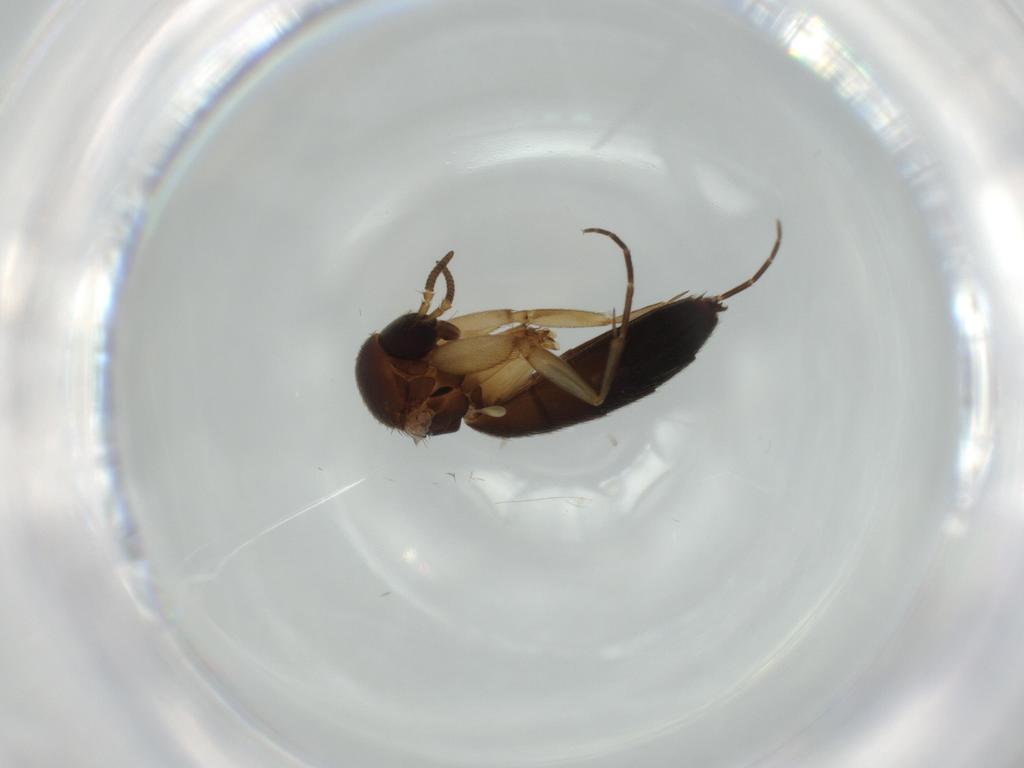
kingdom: Animalia
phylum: Arthropoda
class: Insecta
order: Diptera
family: Mycetophilidae
